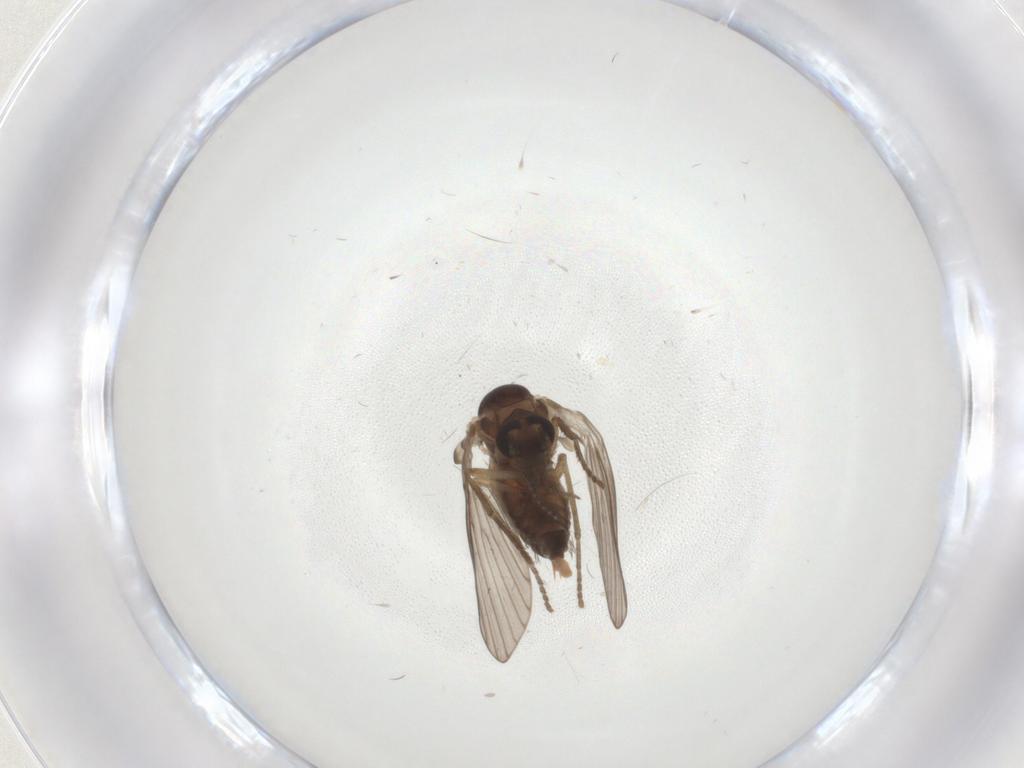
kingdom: Animalia
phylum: Arthropoda
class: Insecta
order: Diptera
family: Psychodidae
